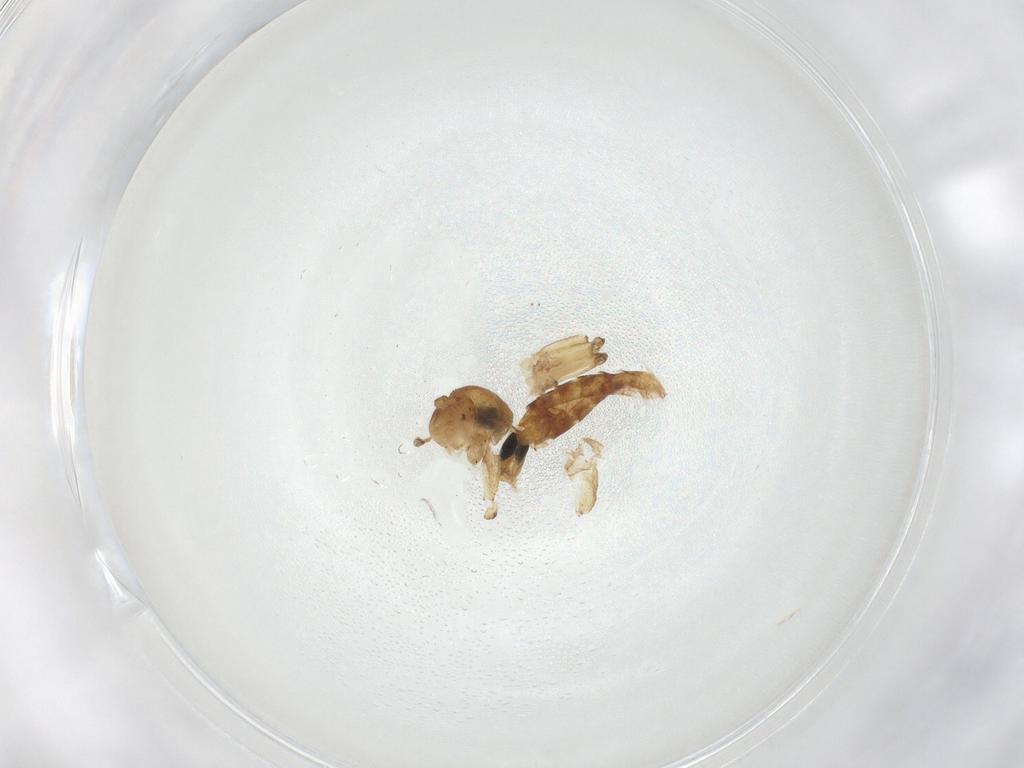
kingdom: Animalia
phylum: Arthropoda
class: Insecta
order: Diptera
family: Mycetophilidae
